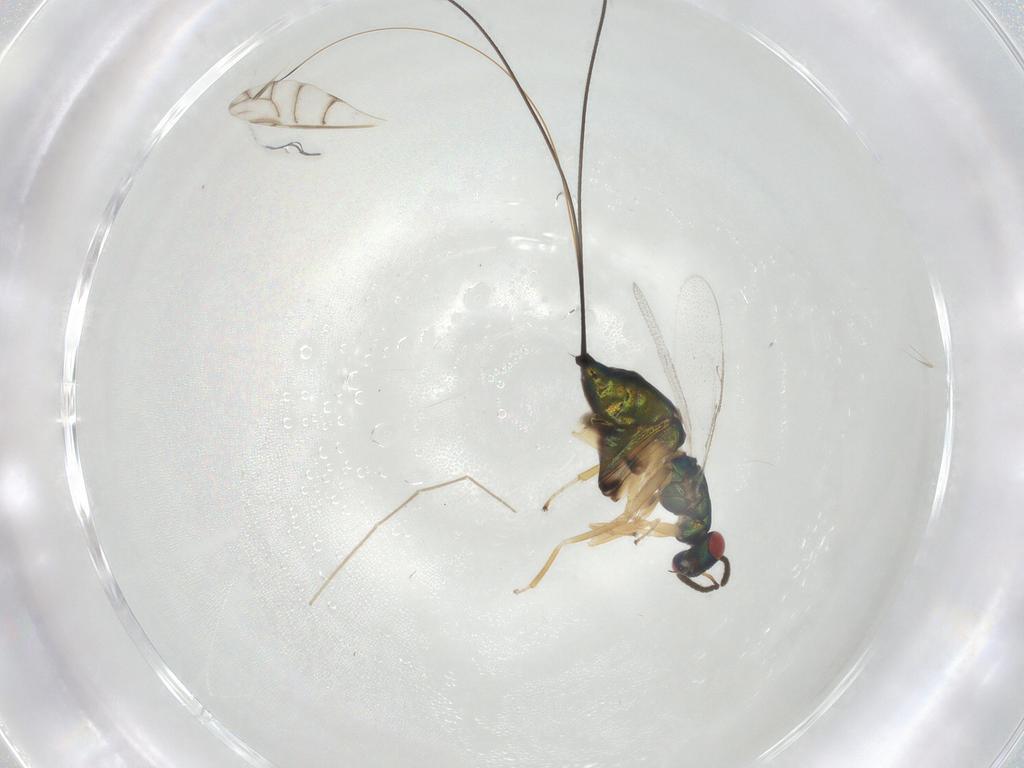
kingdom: Animalia
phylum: Arthropoda
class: Insecta
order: Hymenoptera
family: Pteromalidae
